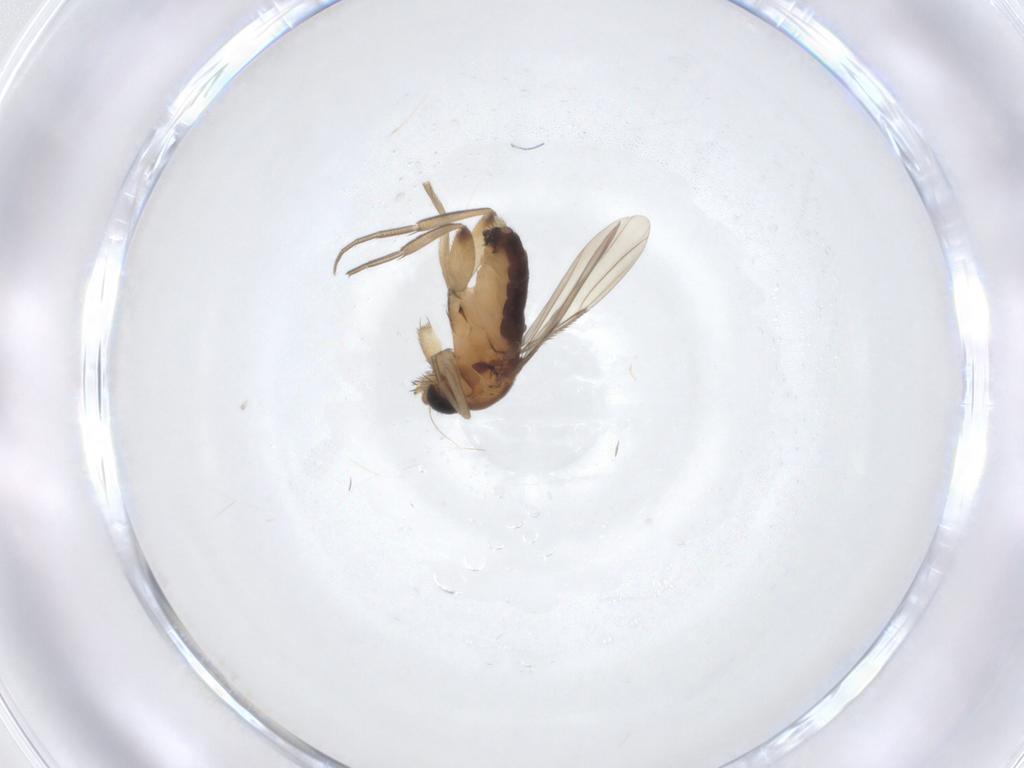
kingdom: Animalia
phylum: Arthropoda
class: Insecta
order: Diptera
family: Phoridae
